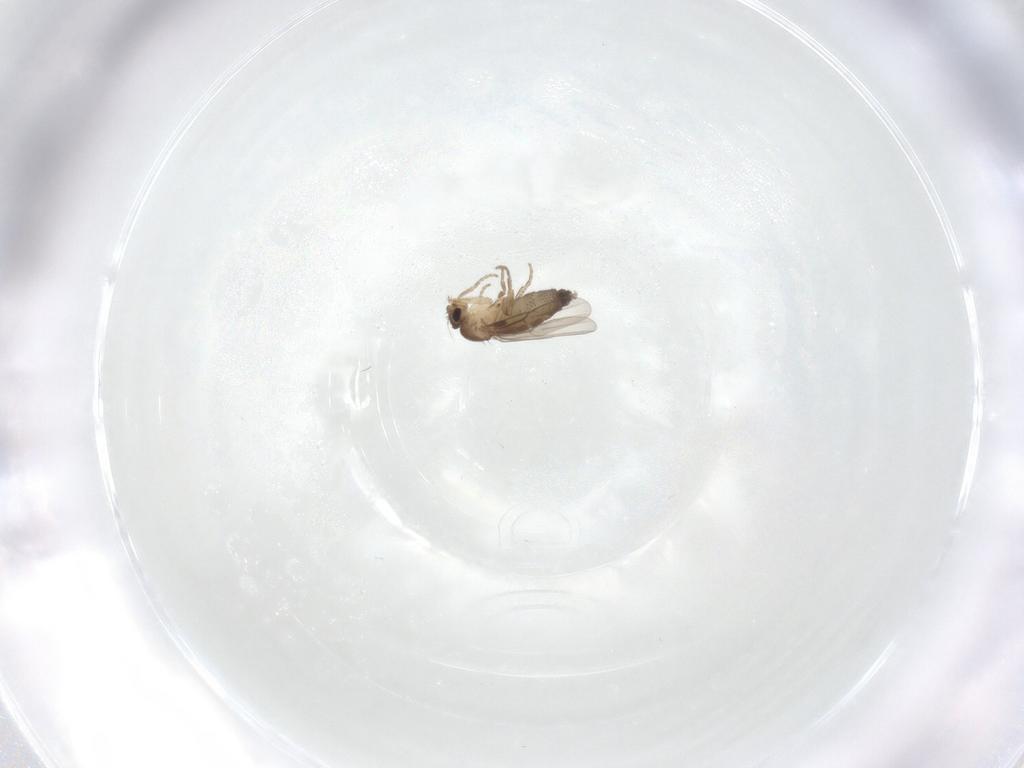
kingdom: Animalia
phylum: Arthropoda
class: Insecta
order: Diptera
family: Phoridae
